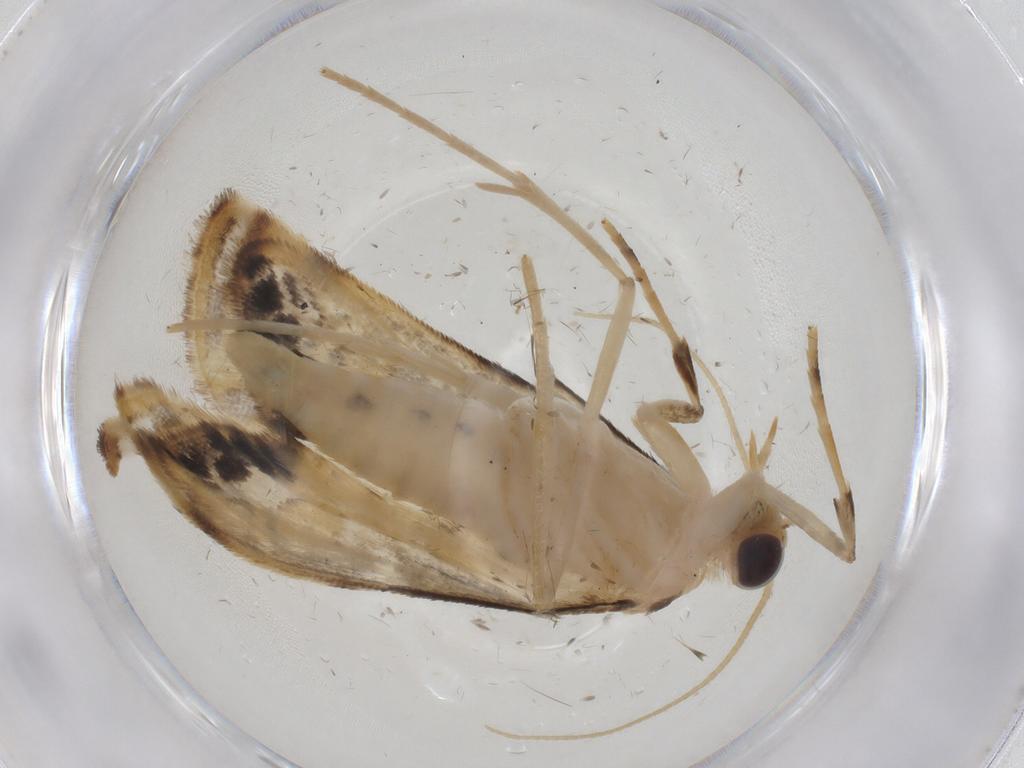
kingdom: Animalia
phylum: Arthropoda
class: Insecta
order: Lepidoptera
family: Crambidae
